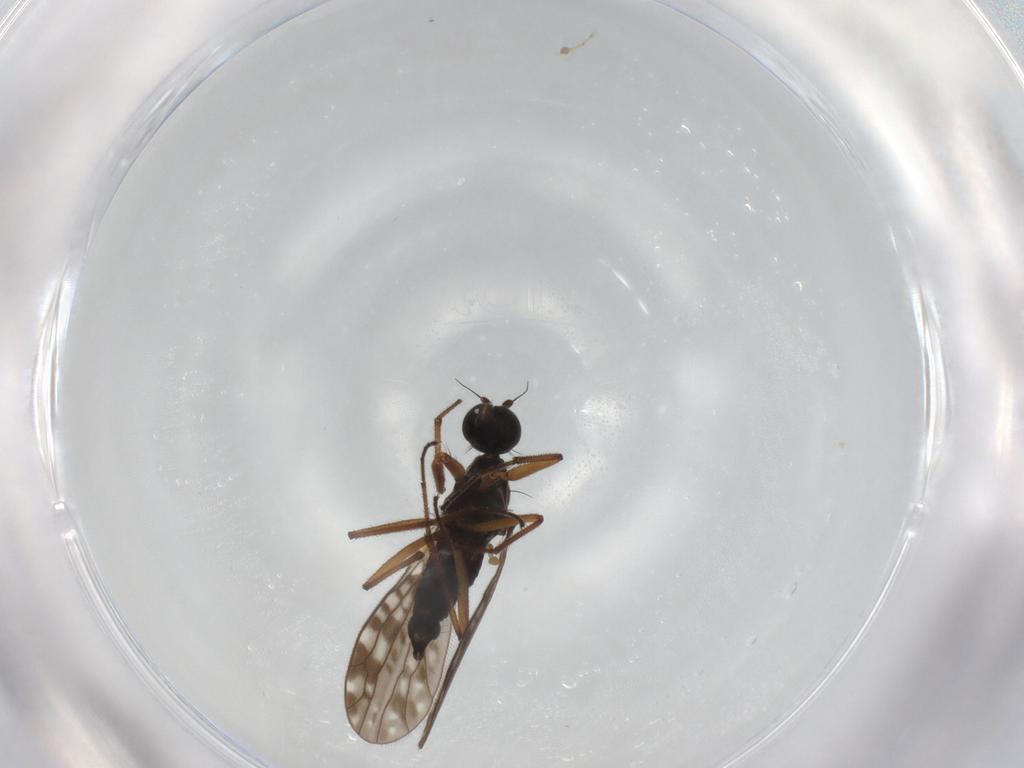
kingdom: Animalia
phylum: Arthropoda
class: Insecta
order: Diptera
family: Empididae
